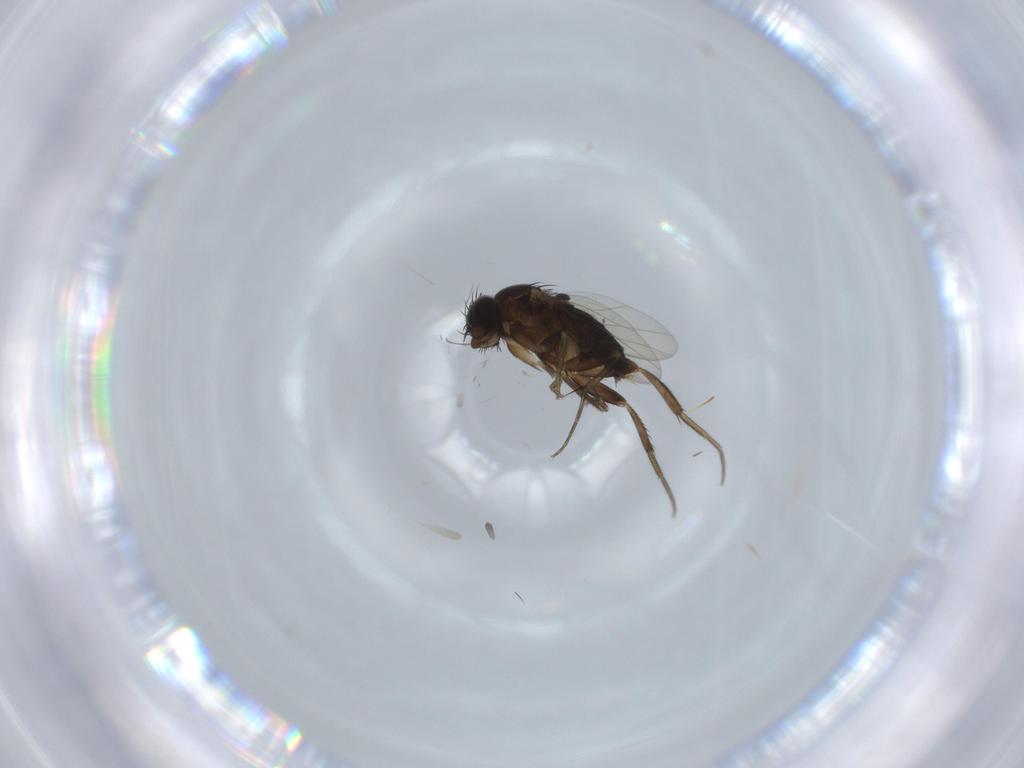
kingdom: Animalia
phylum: Arthropoda
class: Insecta
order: Diptera
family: Phoridae
